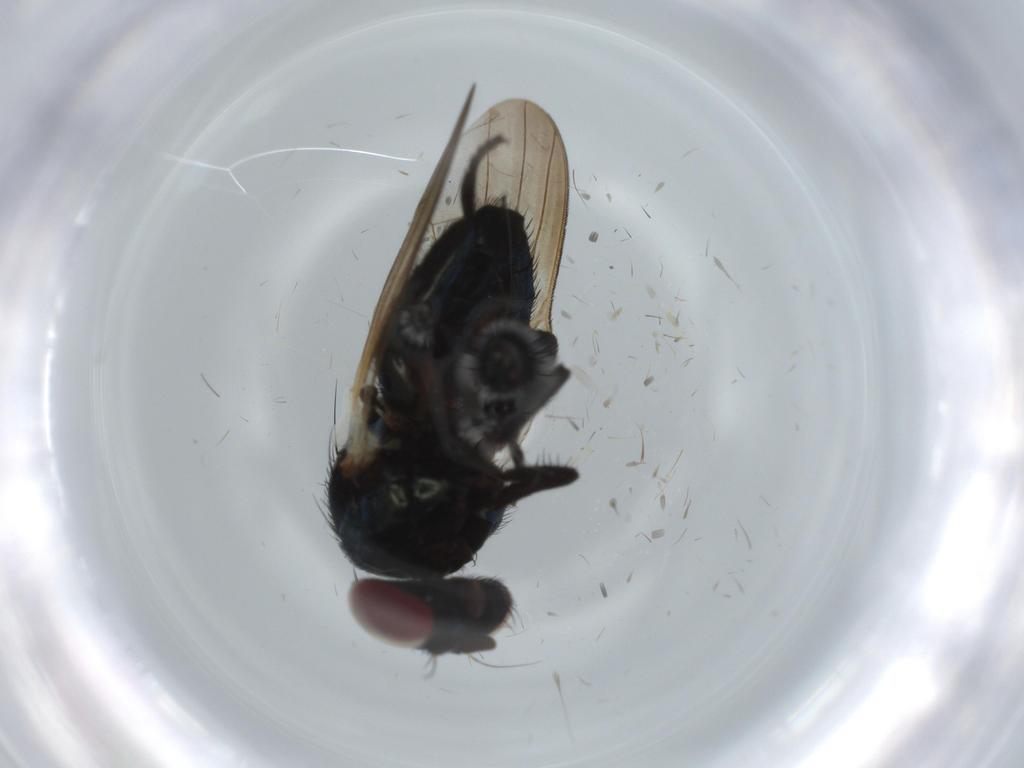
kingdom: Animalia
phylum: Arthropoda
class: Insecta
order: Diptera
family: Lonchaeidae
